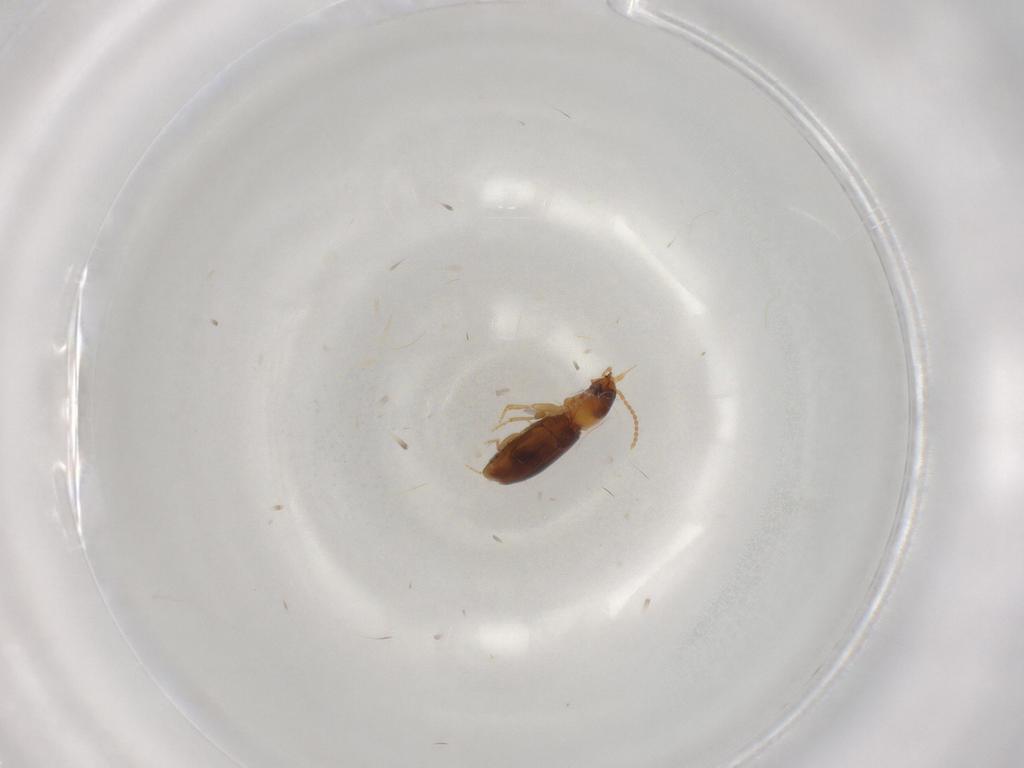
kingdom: Animalia
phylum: Arthropoda
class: Insecta
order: Coleoptera
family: Carabidae
